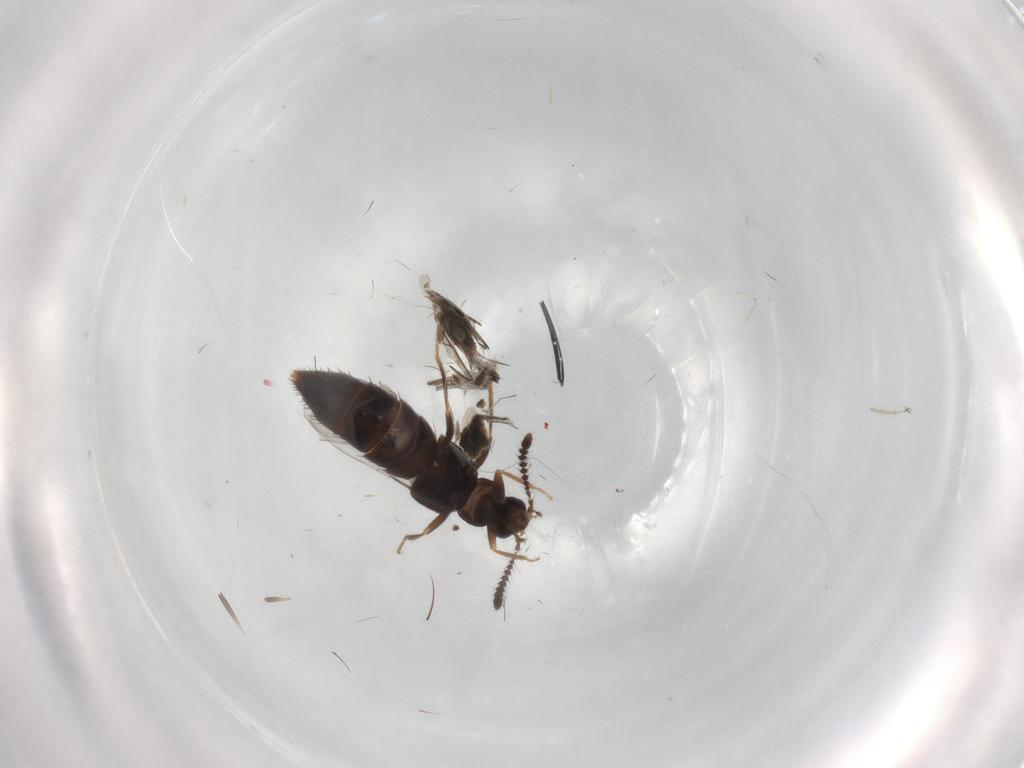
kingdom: Animalia
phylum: Arthropoda
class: Insecta
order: Coleoptera
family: Staphylinidae
